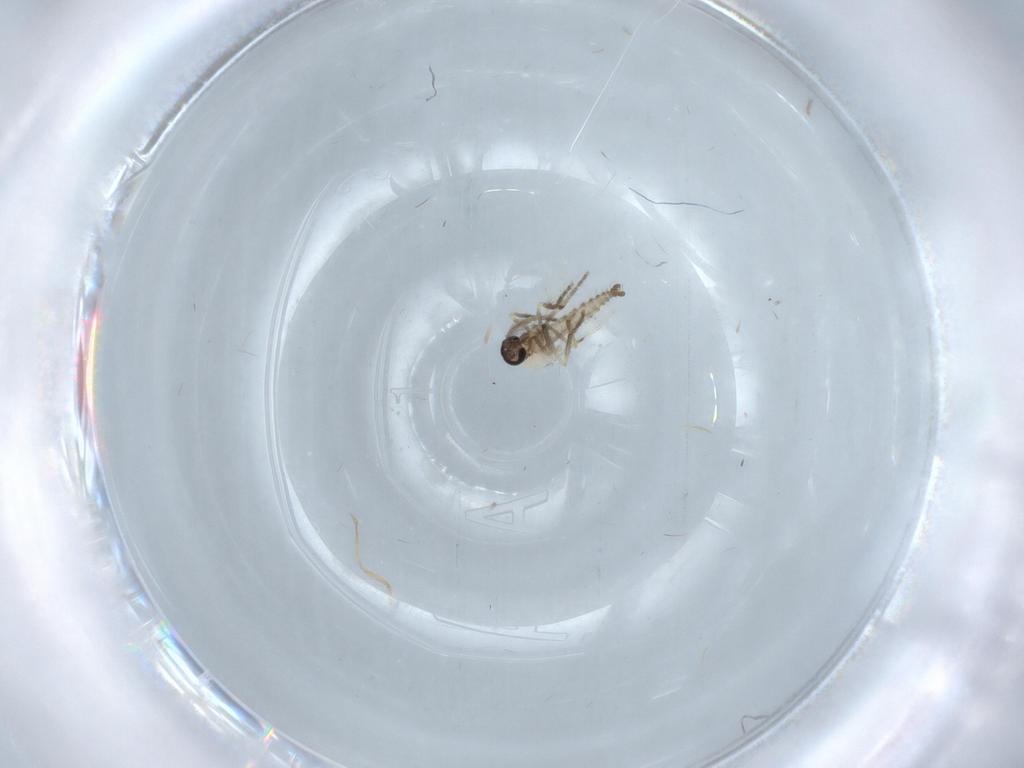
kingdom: Animalia
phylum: Arthropoda
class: Insecta
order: Diptera
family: Ceratopogonidae
